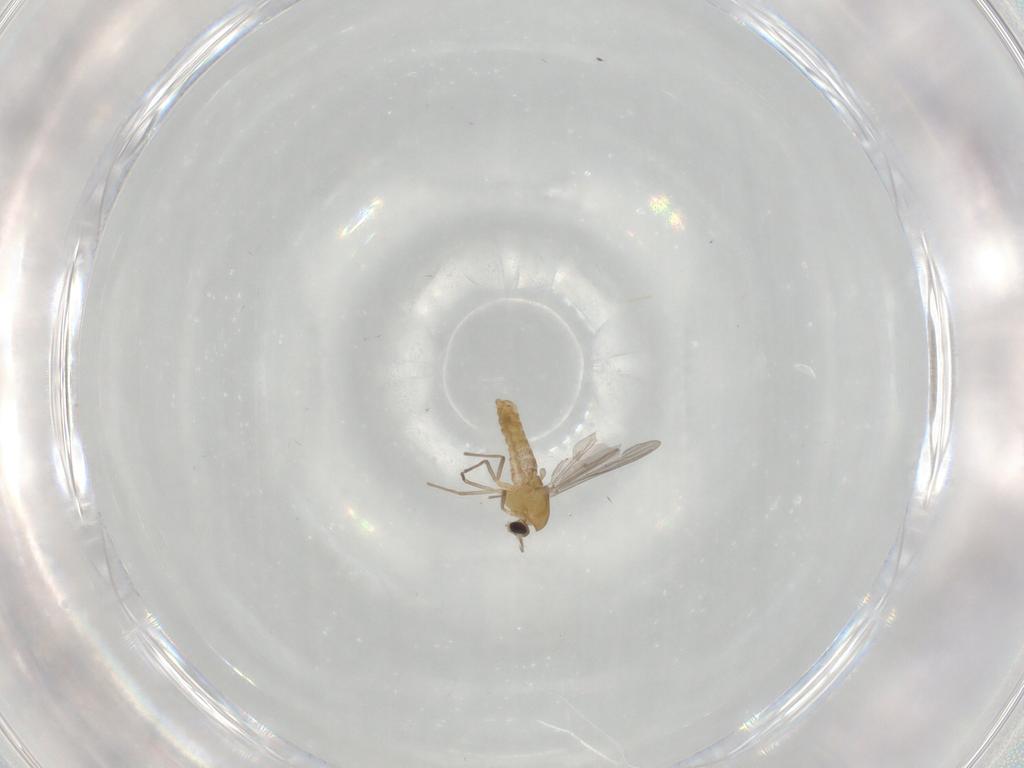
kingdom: Animalia
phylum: Arthropoda
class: Insecta
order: Diptera
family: Chironomidae
